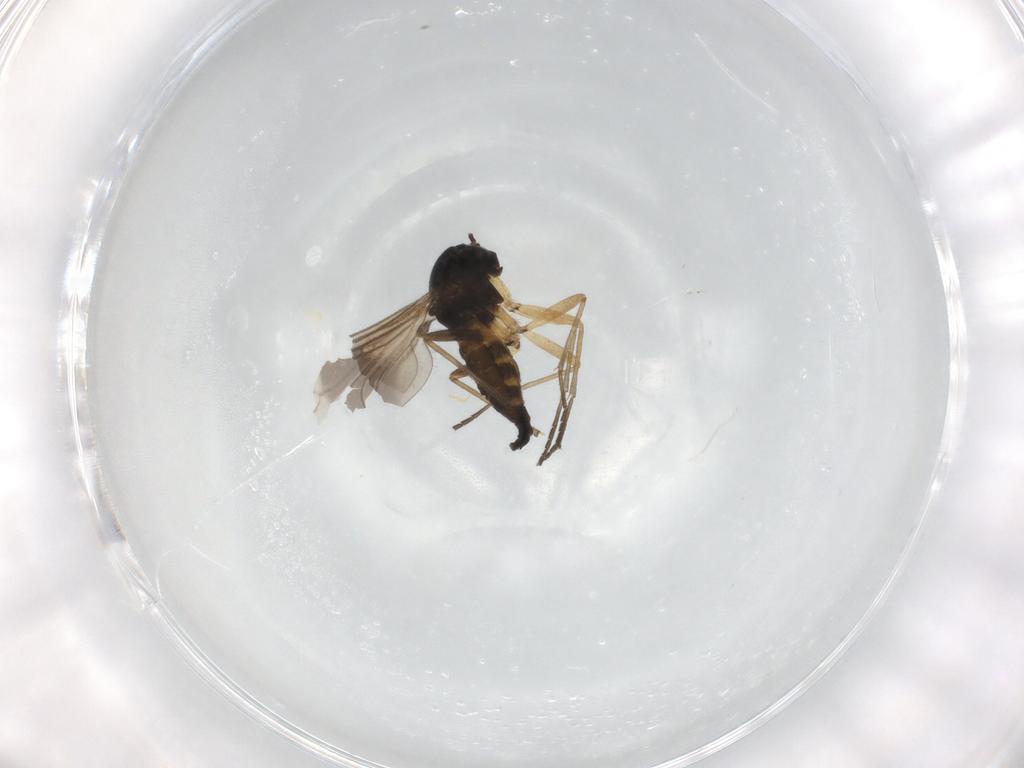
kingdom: Animalia
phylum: Arthropoda
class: Insecta
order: Diptera
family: Sciaridae
